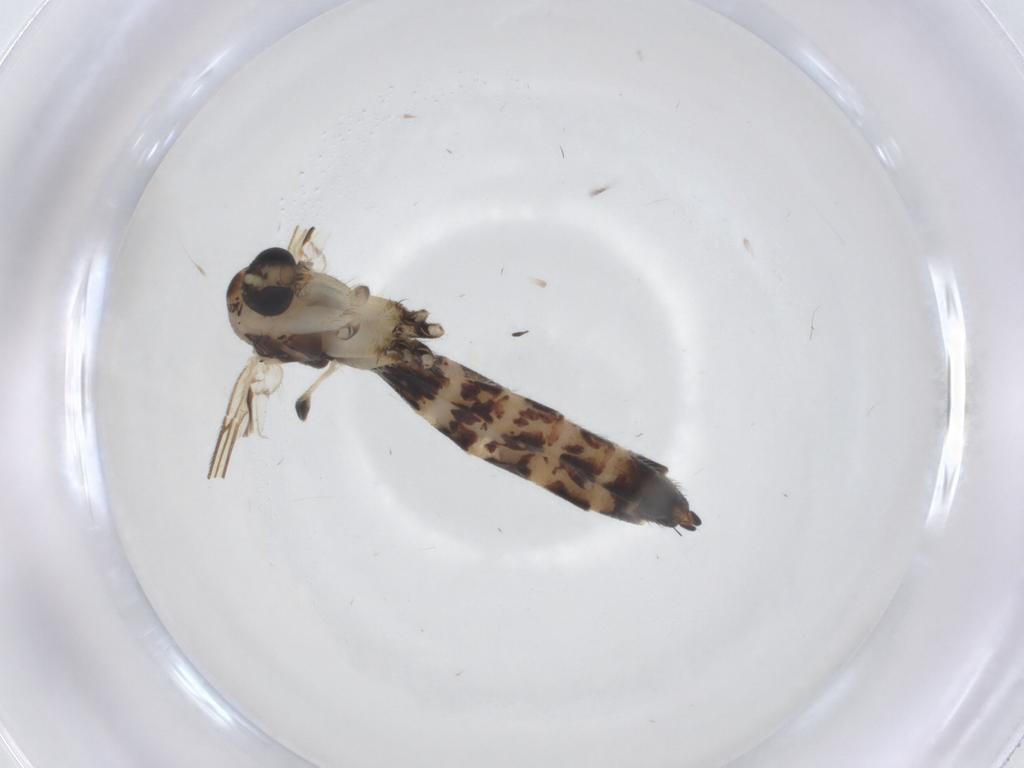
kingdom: Animalia
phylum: Arthropoda
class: Insecta
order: Diptera
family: Mycetophilidae
